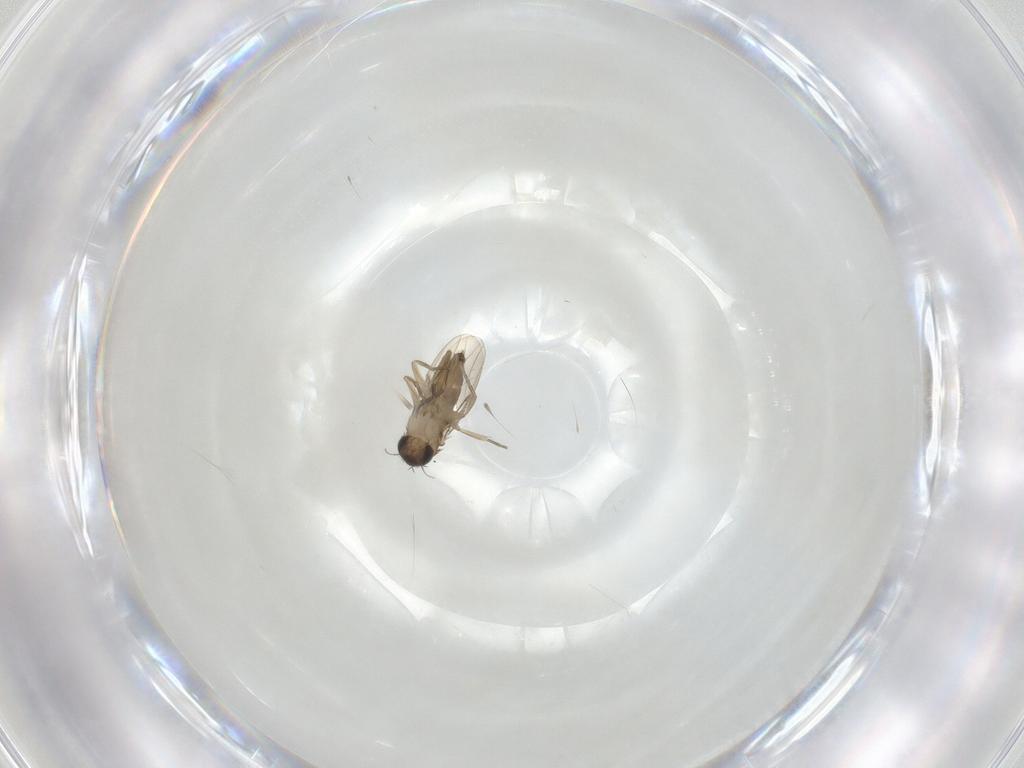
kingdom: Animalia
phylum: Arthropoda
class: Insecta
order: Diptera
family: Phoridae
